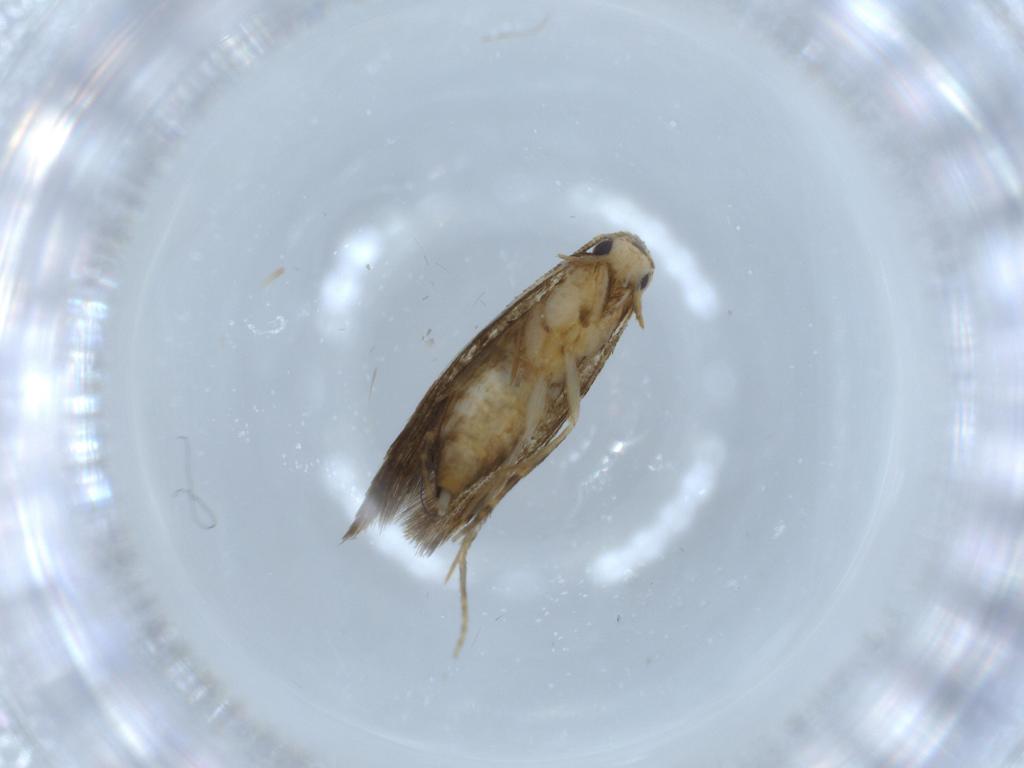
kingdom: Animalia
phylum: Arthropoda
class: Insecta
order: Lepidoptera
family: Tineidae
